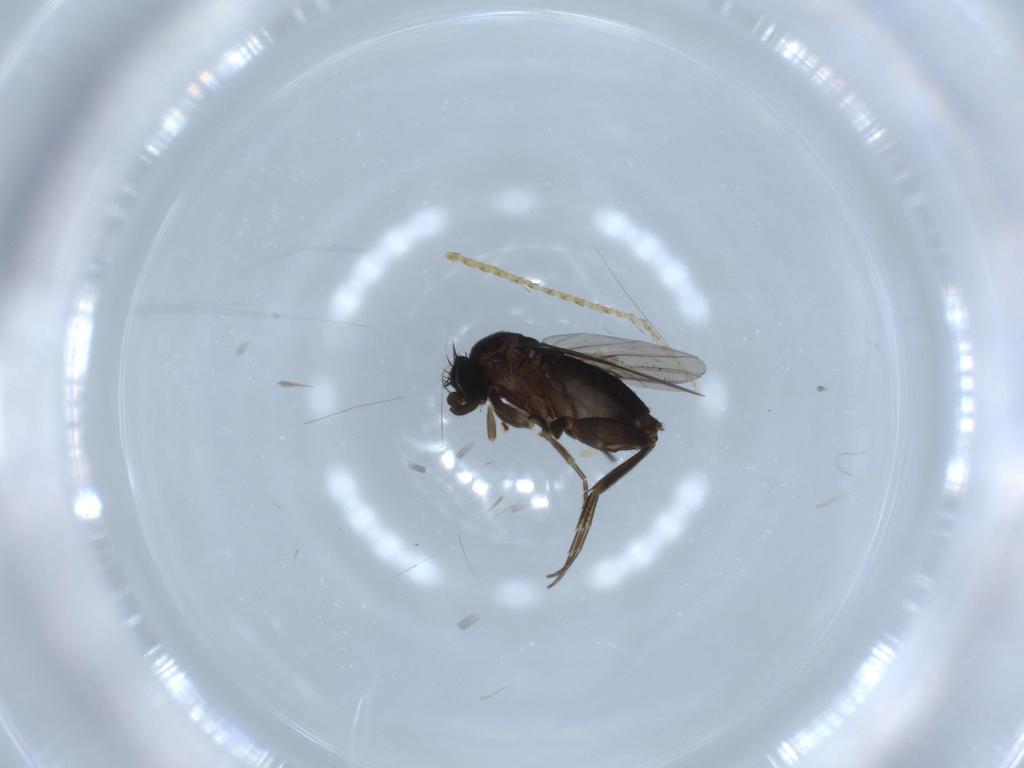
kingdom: Animalia
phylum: Arthropoda
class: Insecta
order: Diptera
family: Phoridae
